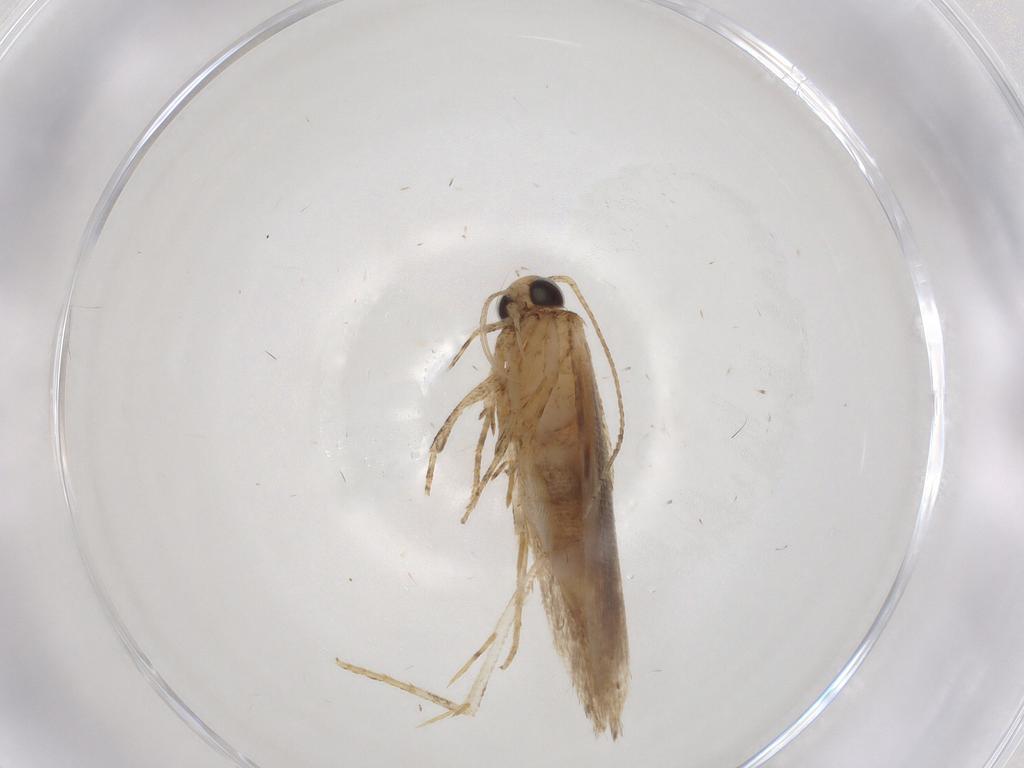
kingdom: Animalia
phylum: Arthropoda
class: Insecta
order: Lepidoptera
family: Gelechiidae
